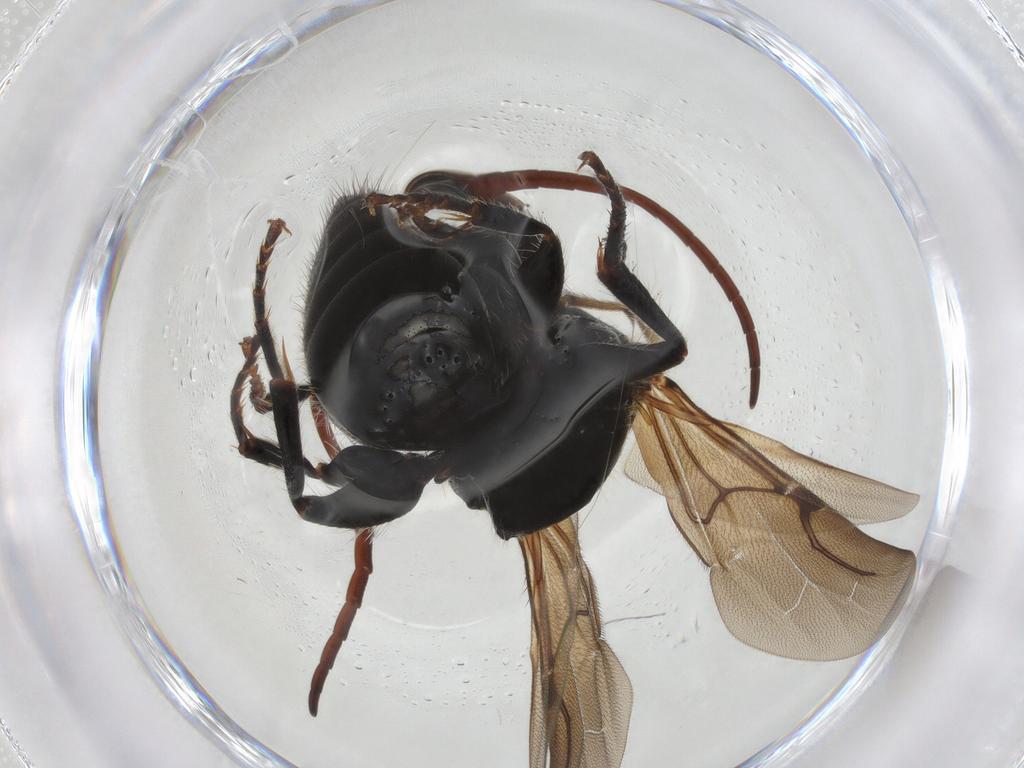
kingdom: Animalia
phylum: Arthropoda
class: Insecta
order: Hymenoptera
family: Bethylidae
